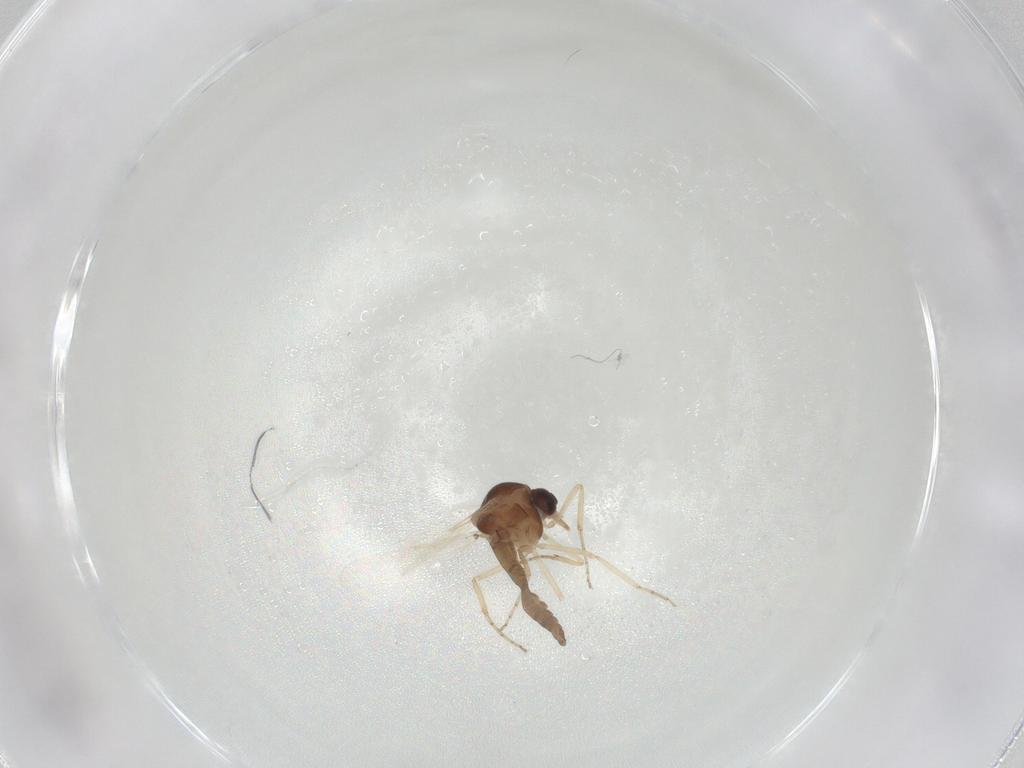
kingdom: Animalia
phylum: Arthropoda
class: Insecta
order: Diptera
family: Ceratopogonidae
